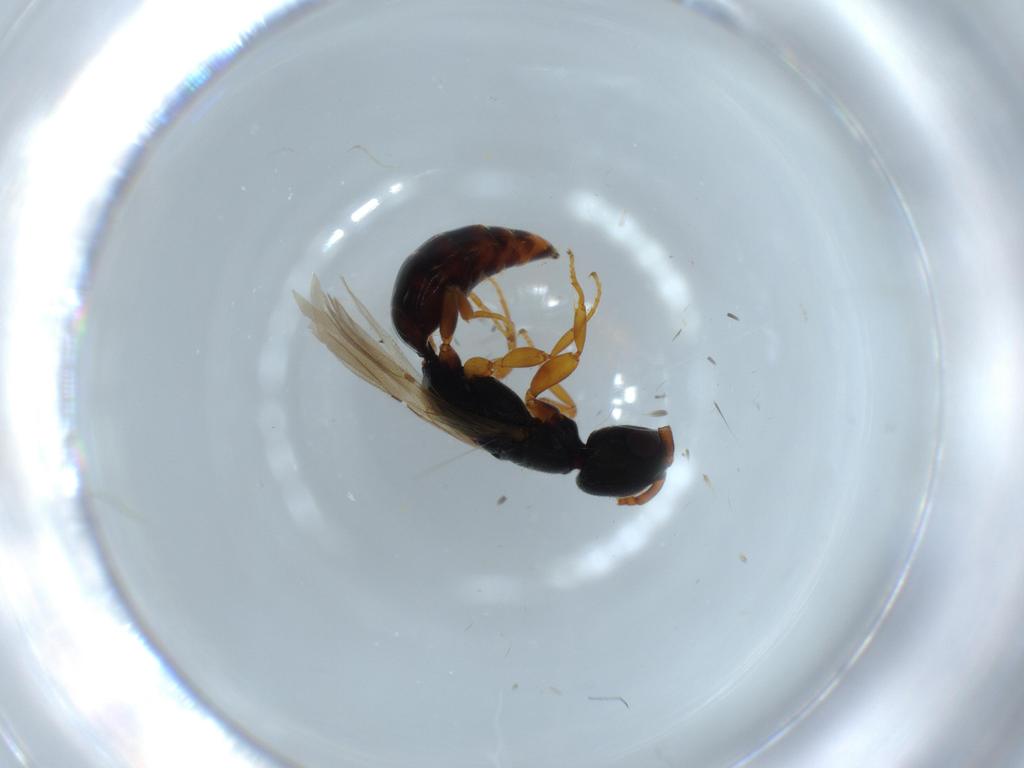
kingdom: Animalia
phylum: Arthropoda
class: Insecta
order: Hymenoptera
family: Bethylidae
